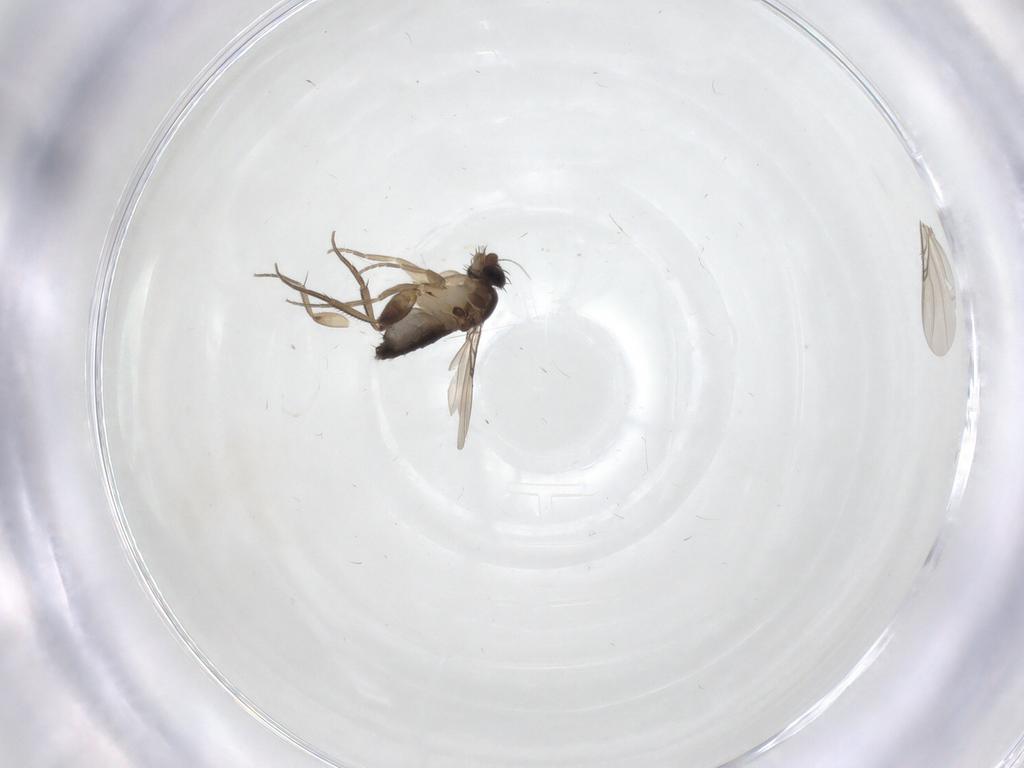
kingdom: Animalia
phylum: Arthropoda
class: Insecta
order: Diptera
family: Phoridae
